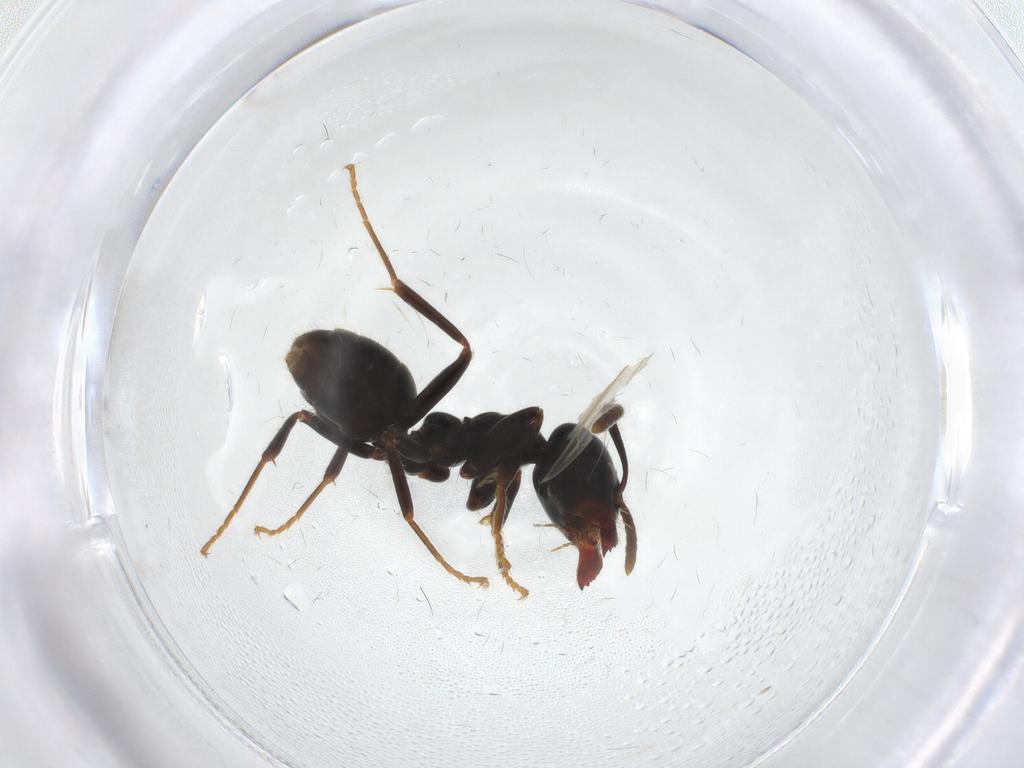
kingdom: Animalia
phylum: Arthropoda
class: Insecta
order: Hymenoptera
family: Formicidae
